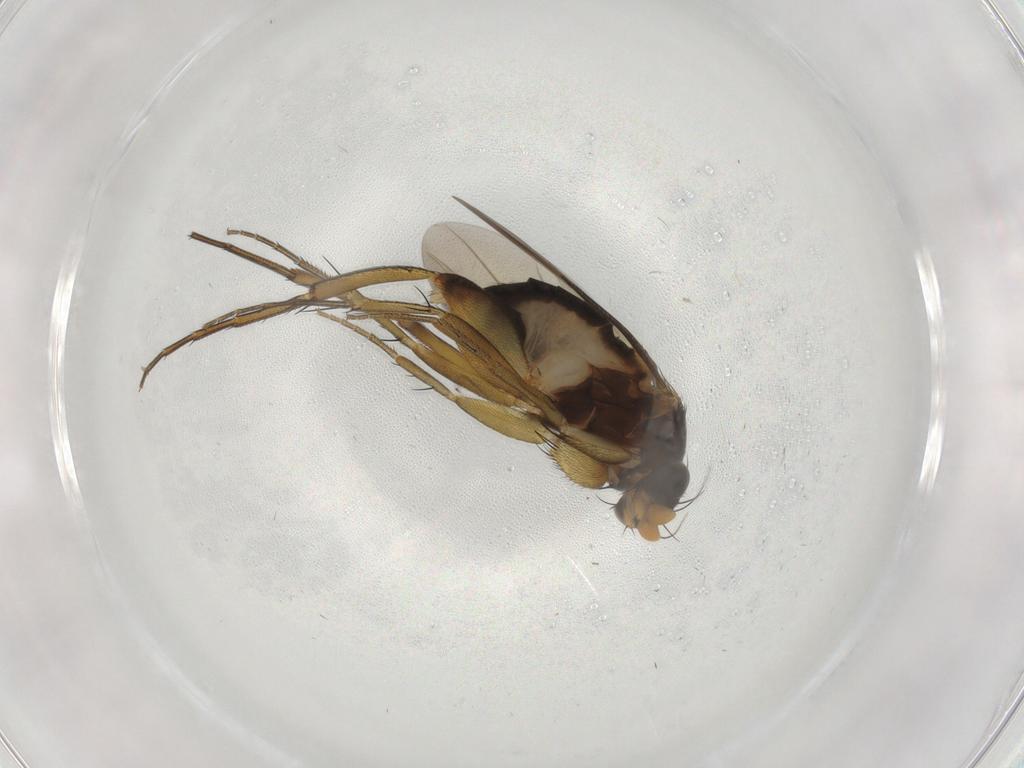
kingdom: Animalia
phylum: Arthropoda
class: Insecta
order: Diptera
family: Phoridae
